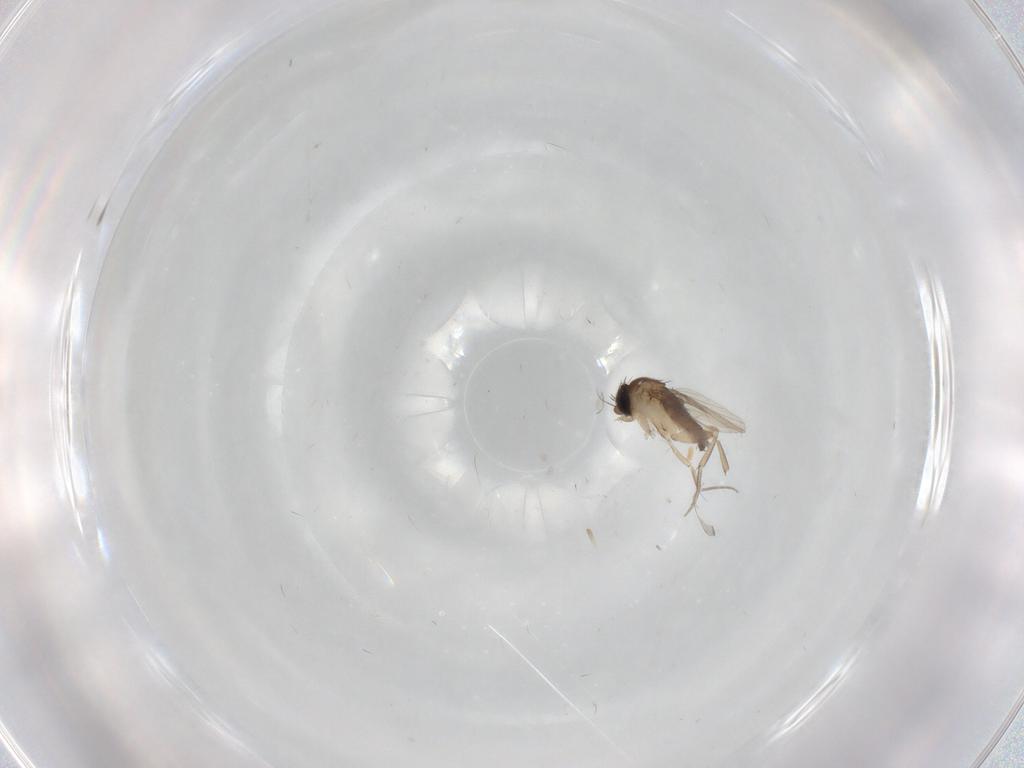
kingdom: Animalia
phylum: Arthropoda
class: Insecta
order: Diptera
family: Phoridae
